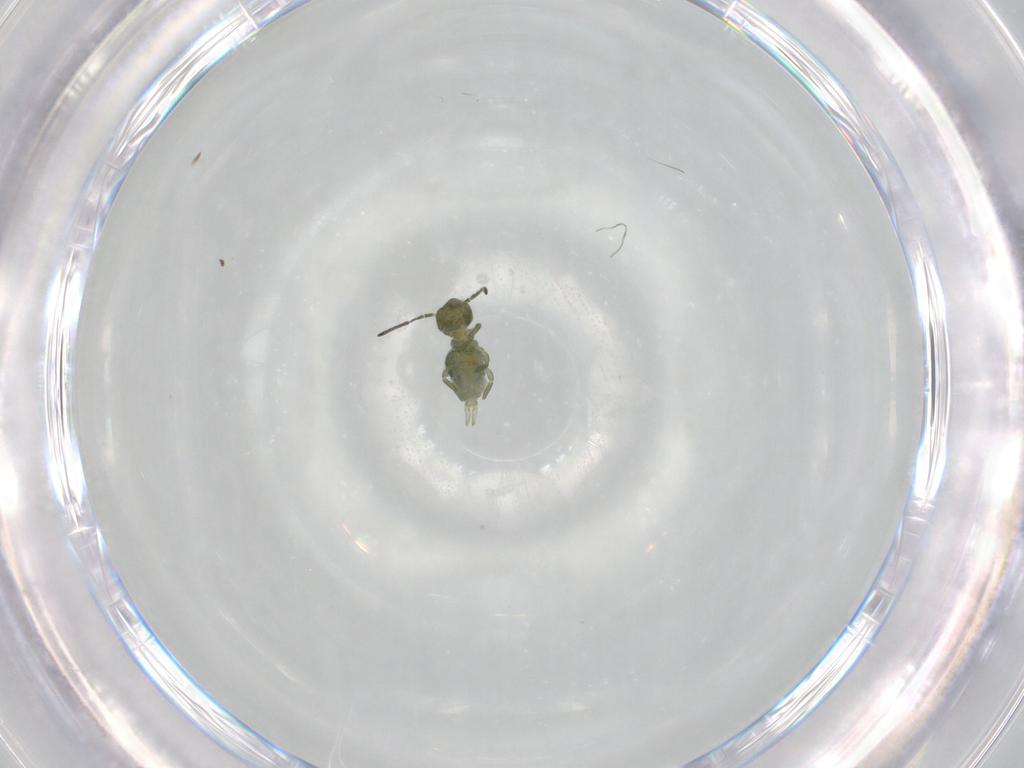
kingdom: Animalia
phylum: Arthropoda
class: Collembola
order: Symphypleona
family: Sminthuridae
